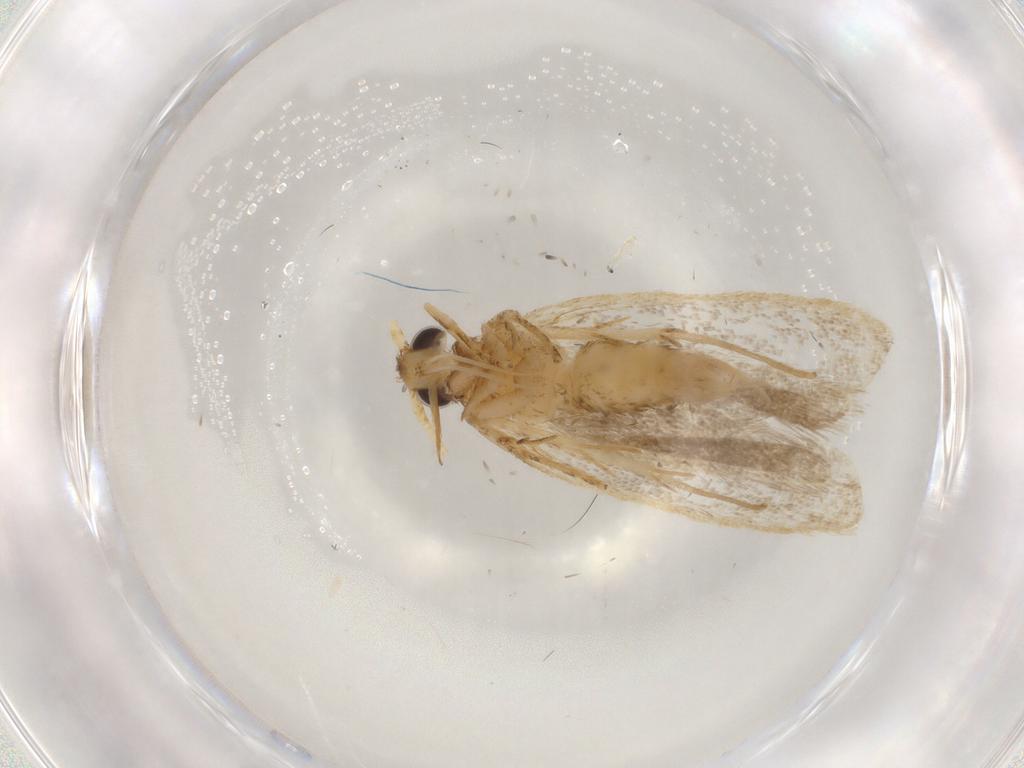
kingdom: Animalia
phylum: Arthropoda
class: Insecta
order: Lepidoptera
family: Lecithoceridae
